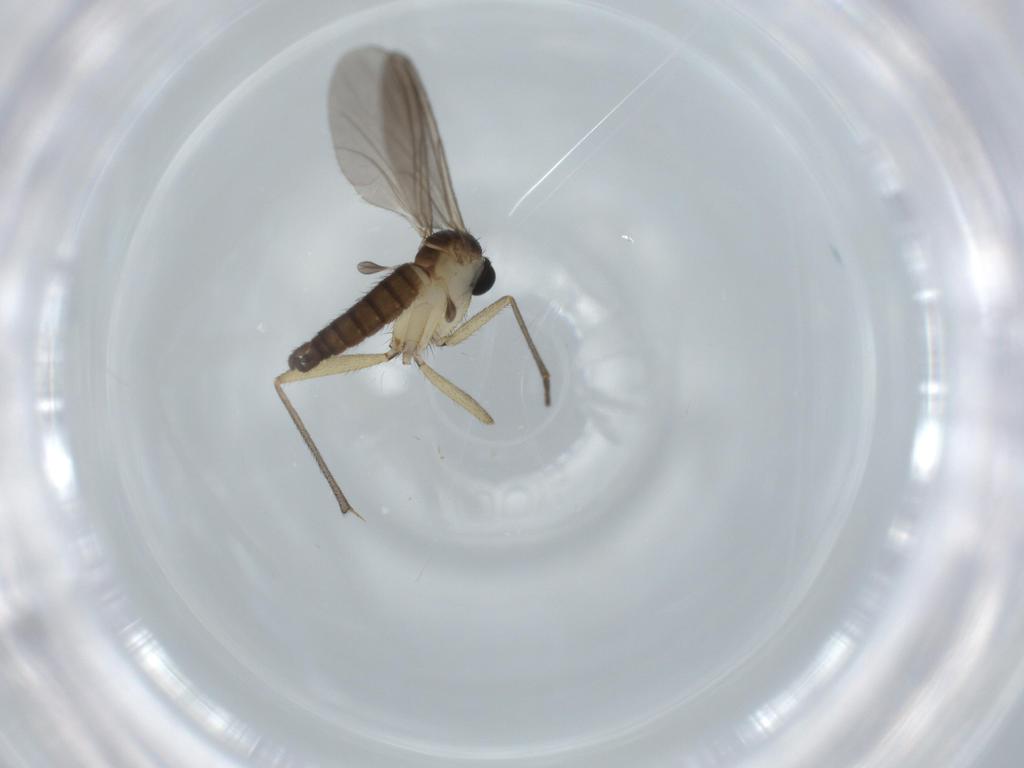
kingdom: Animalia
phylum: Arthropoda
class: Insecta
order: Diptera
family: Sciaridae
